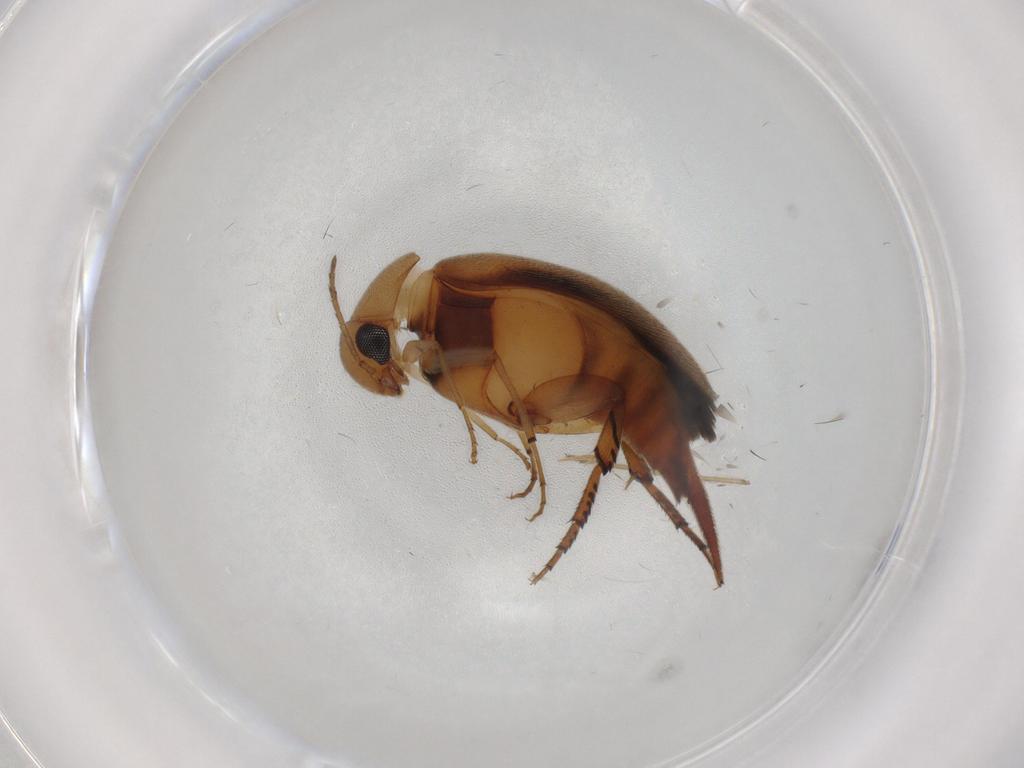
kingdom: Animalia
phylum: Arthropoda
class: Insecta
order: Coleoptera
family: Mordellidae
